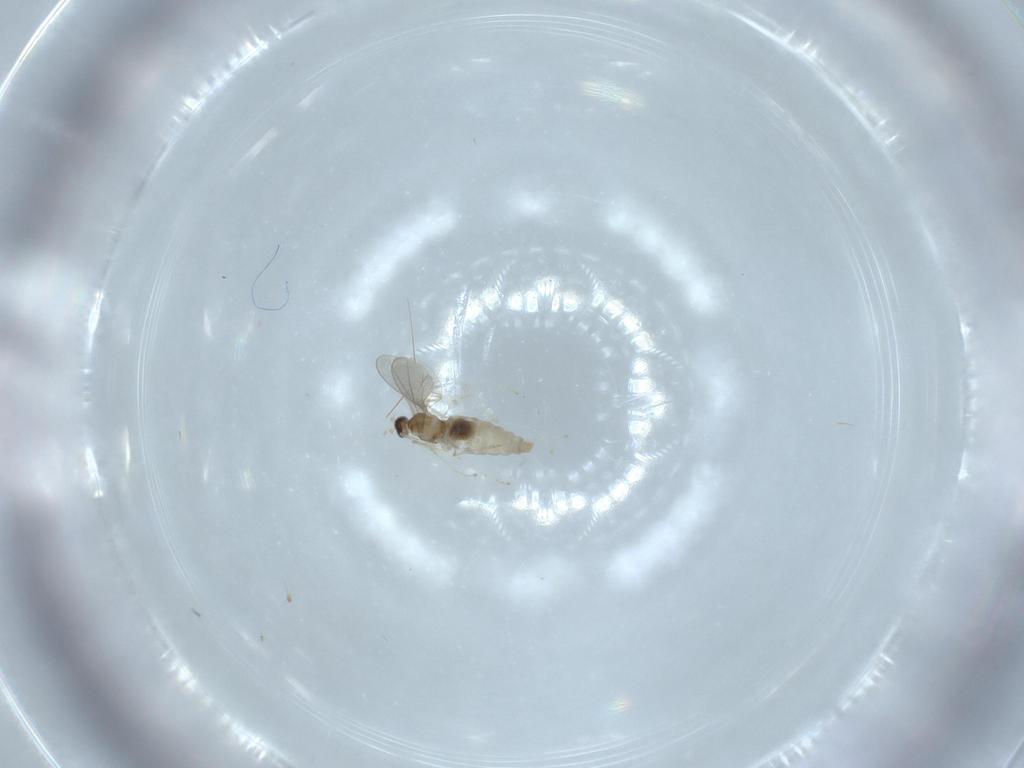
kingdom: Animalia
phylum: Arthropoda
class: Insecta
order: Diptera
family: Cecidomyiidae
